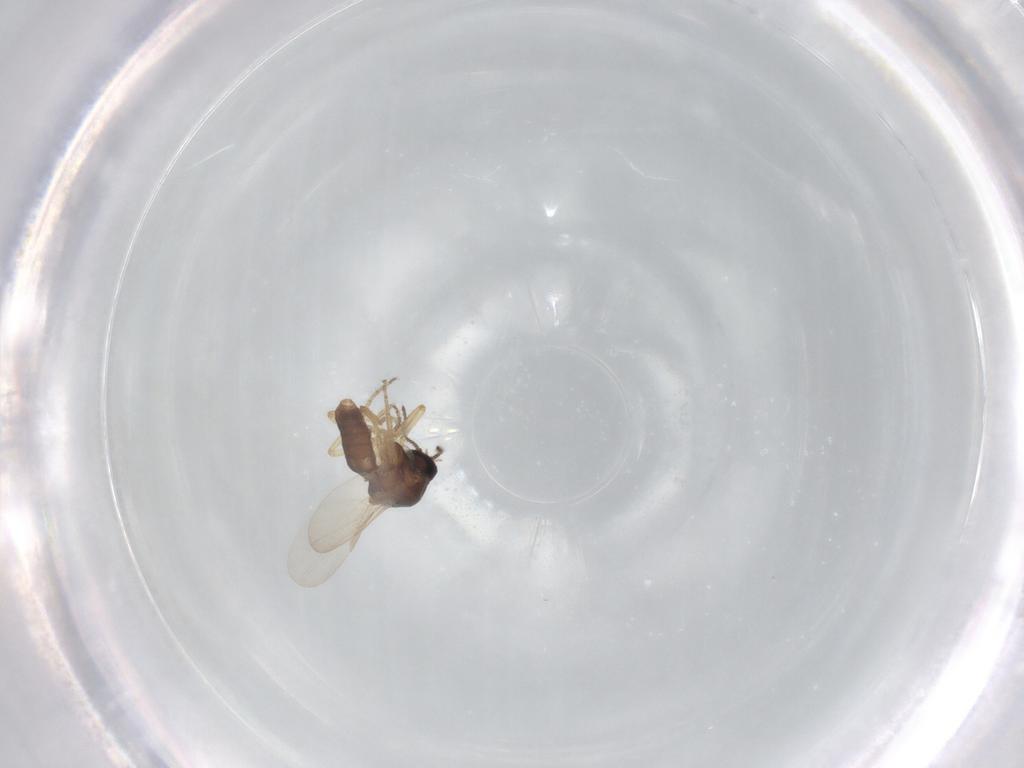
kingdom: Animalia
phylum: Arthropoda
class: Insecta
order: Diptera
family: Ceratopogonidae
